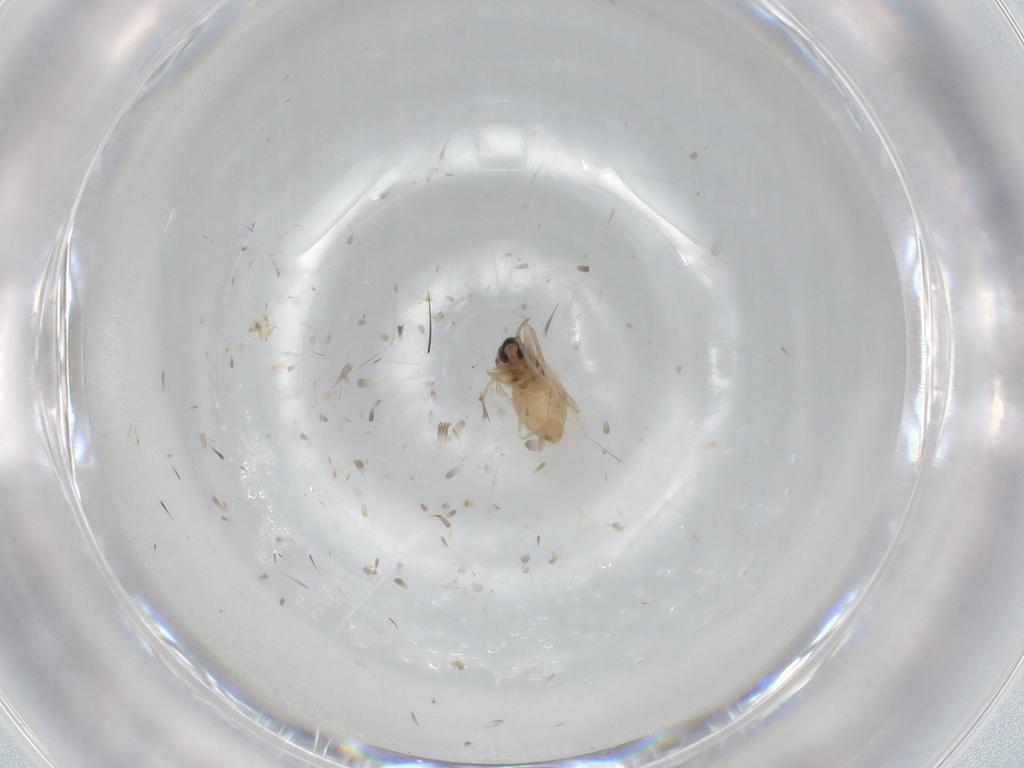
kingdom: Animalia
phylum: Arthropoda
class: Insecta
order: Diptera
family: Cecidomyiidae
